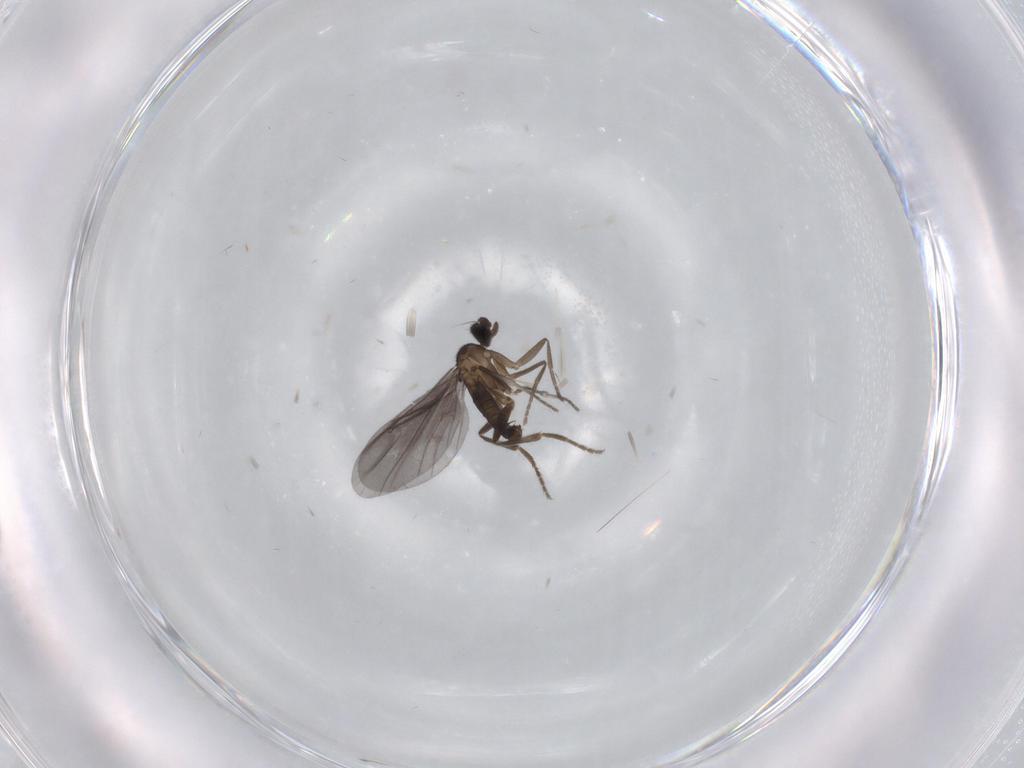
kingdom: Animalia
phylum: Arthropoda
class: Insecta
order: Diptera
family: Phoridae
